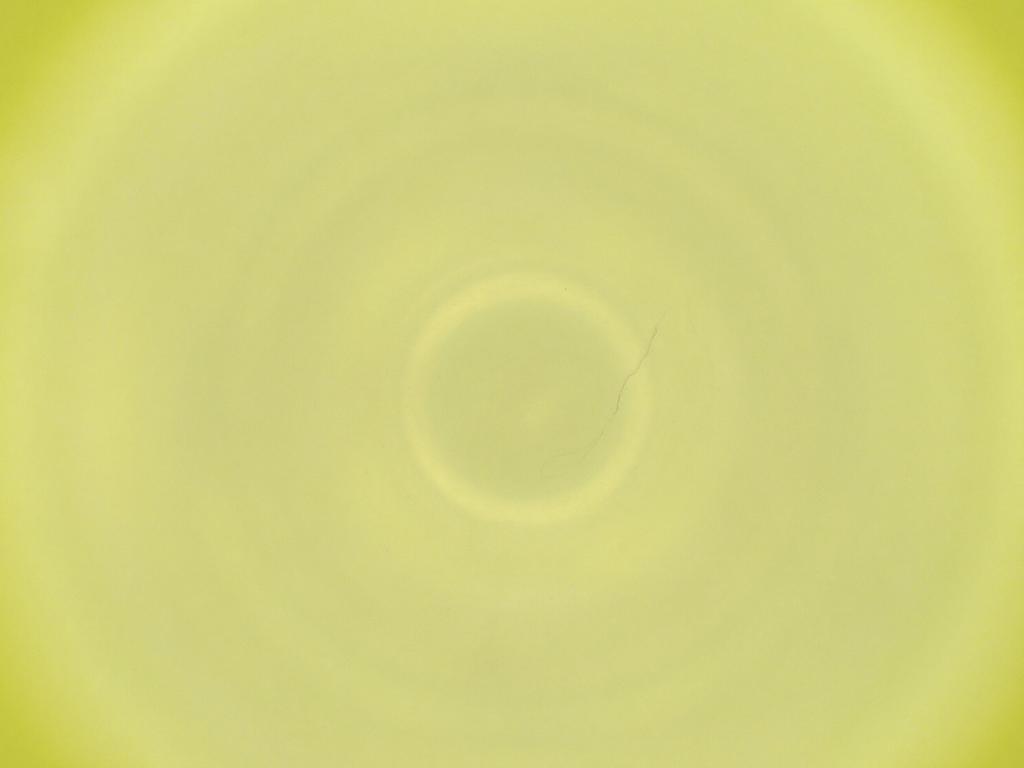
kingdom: Animalia
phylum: Arthropoda
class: Insecta
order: Diptera
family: Cecidomyiidae
